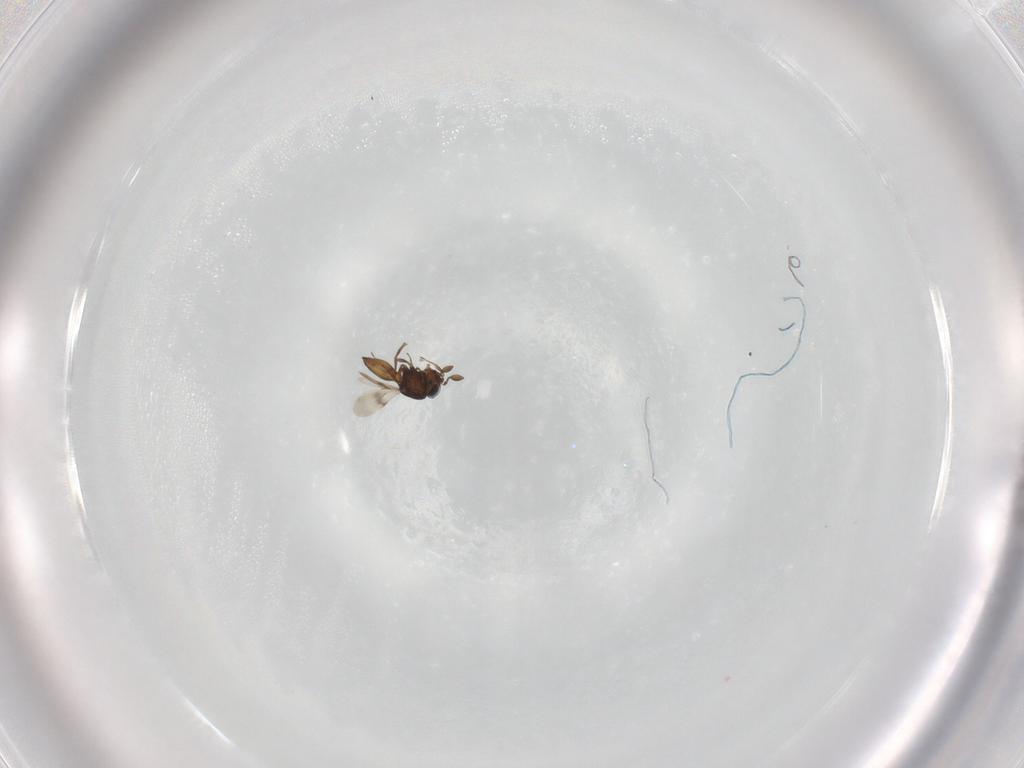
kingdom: Animalia
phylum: Arthropoda
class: Insecta
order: Hymenoptera
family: Scelionidae
